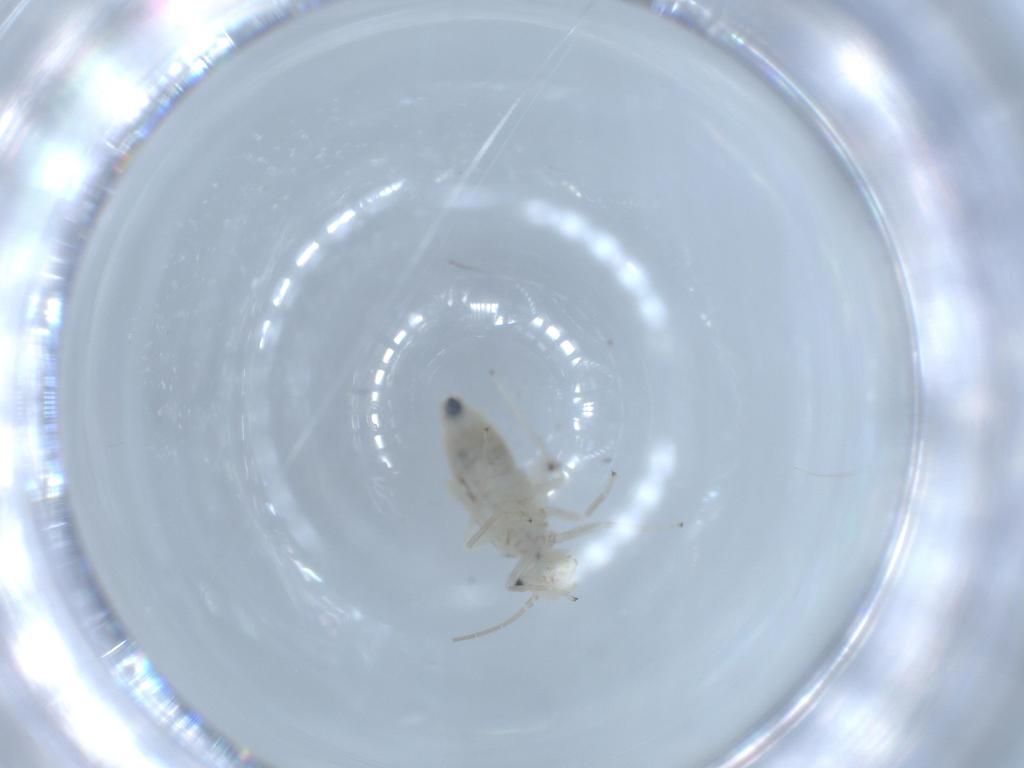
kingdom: Animalia
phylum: Arthropoda
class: Insecta
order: Psocodea
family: Caeciliusidae
